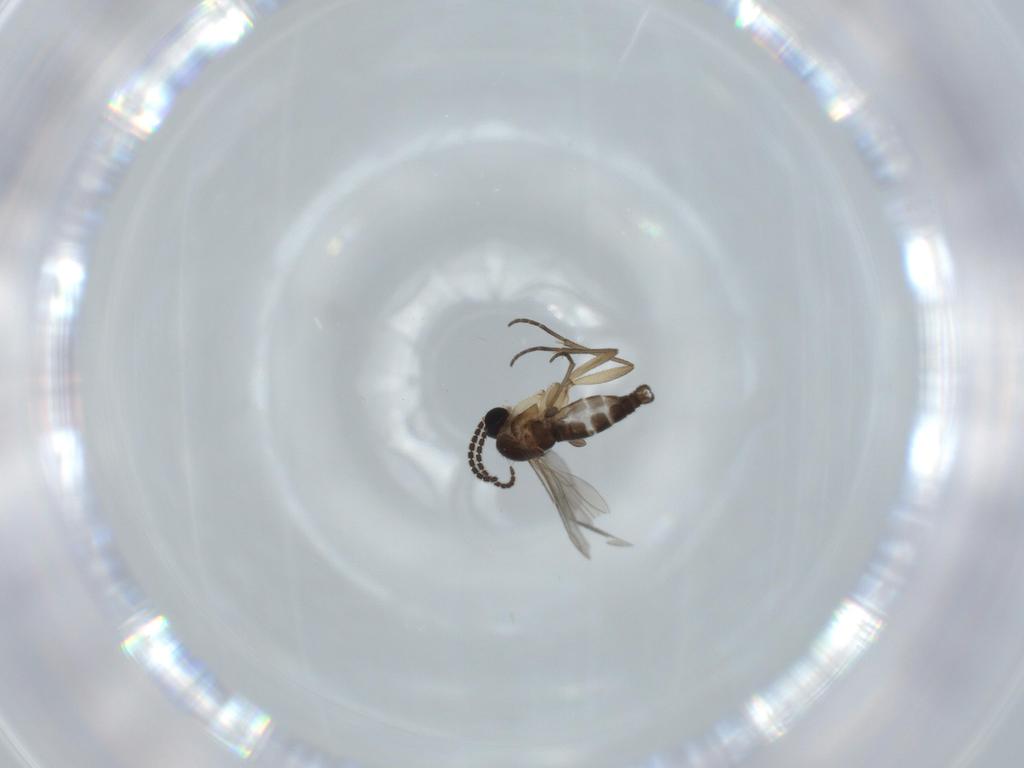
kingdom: Animalia
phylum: Arthropoda
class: Insecta
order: Diptera
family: Sciaridae
